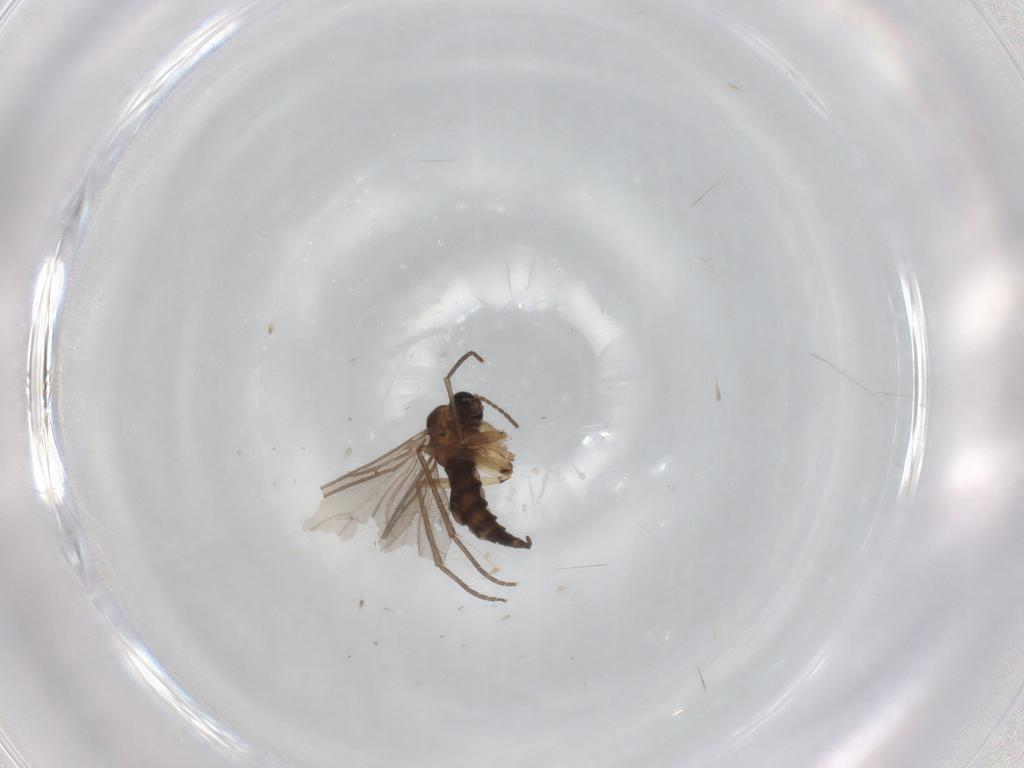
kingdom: Animalia
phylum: Arthropoda
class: Insecta
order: Diptera
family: Sciaridae
